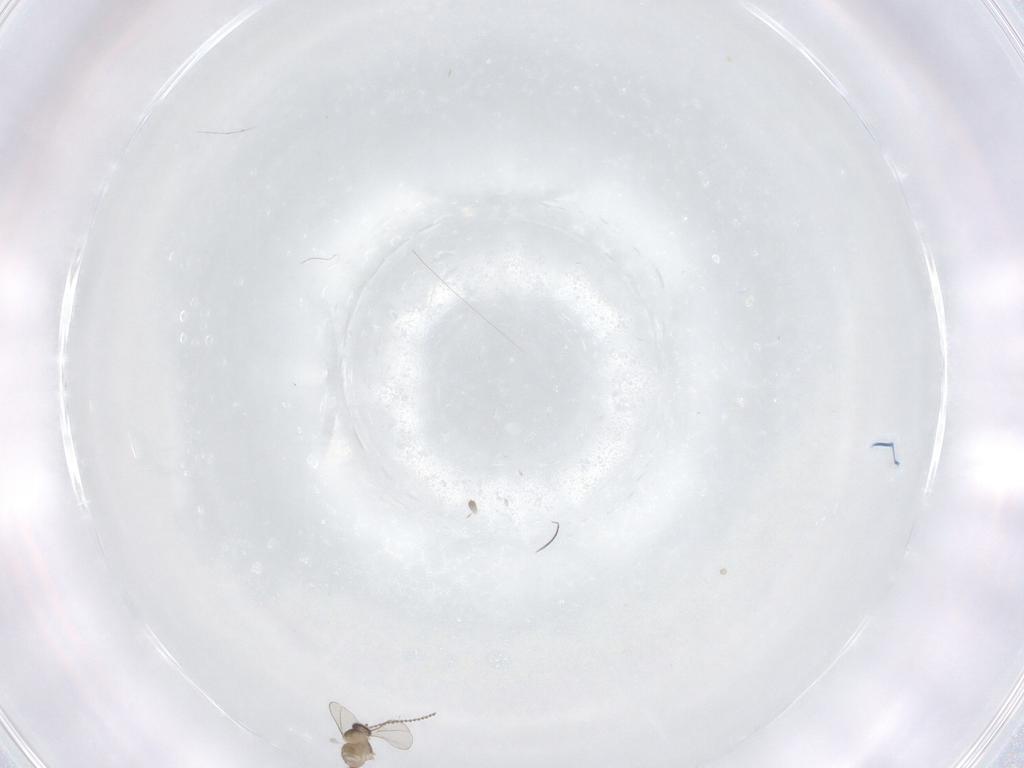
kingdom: Animalia
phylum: Arthropoda
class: Insecta
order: Diptera
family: Cecidomyiidae
